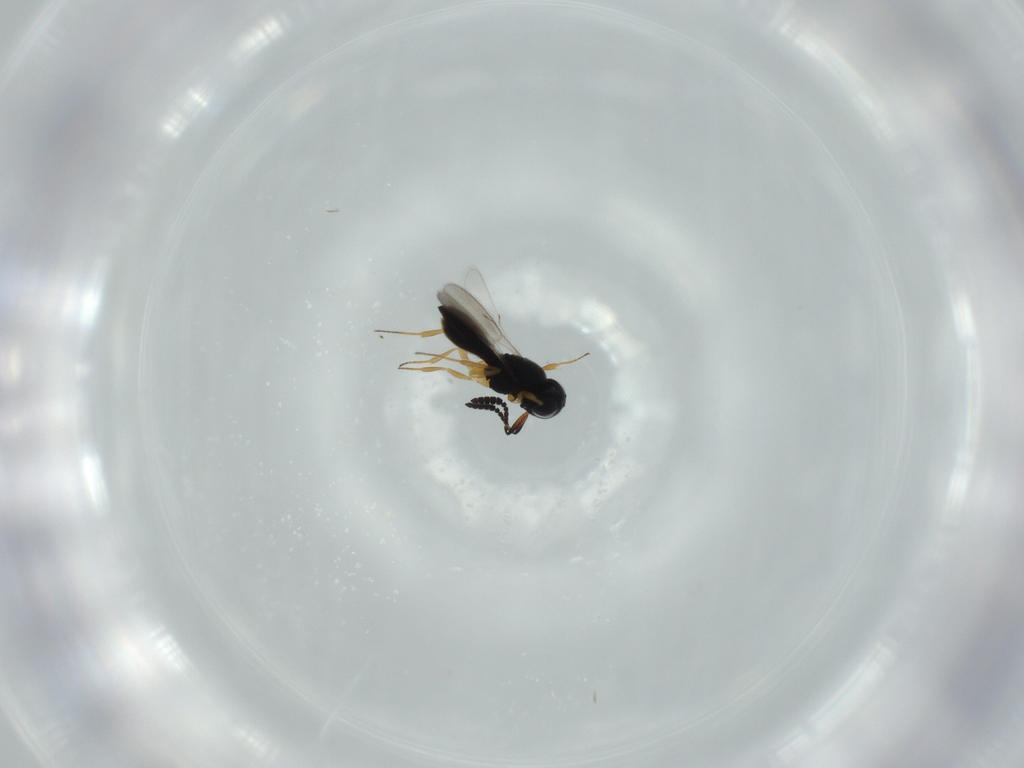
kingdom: Animalia
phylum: Arthropoda
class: Insecta
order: Hymenoptera
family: Scelionidae
